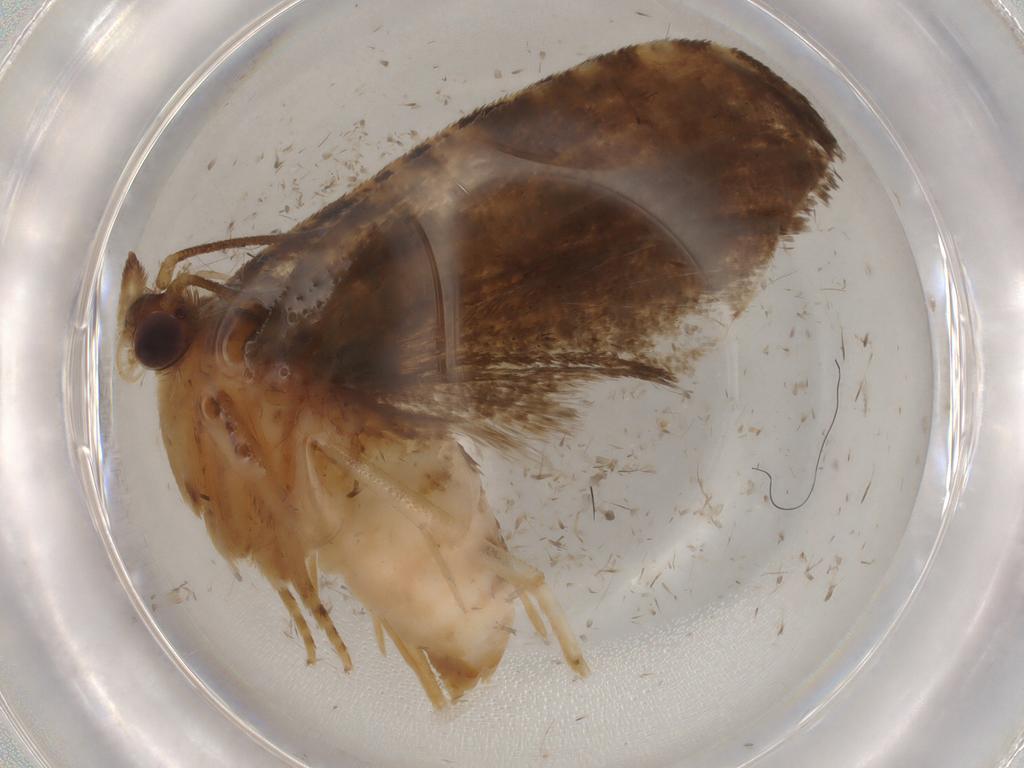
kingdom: Animalia
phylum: Arthropoda
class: Insecta
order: Lepidoptera
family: Tortricidae
